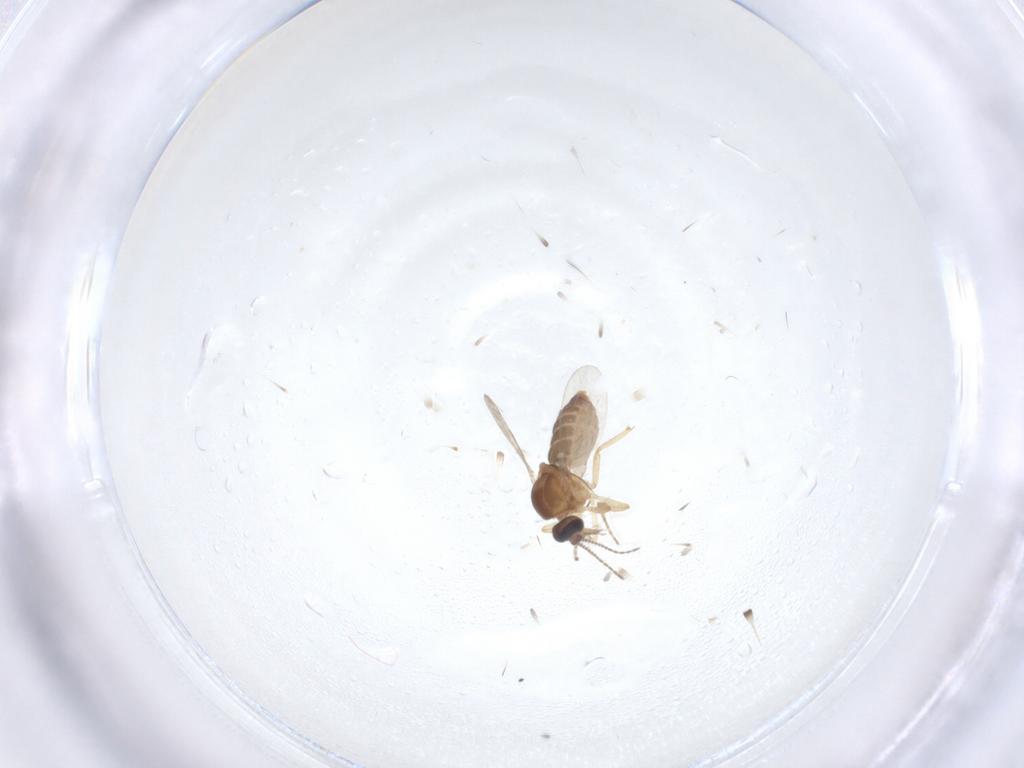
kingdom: Animalia
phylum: Arthropoda
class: Insecta
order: Diptera
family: Ceratopogonidae
